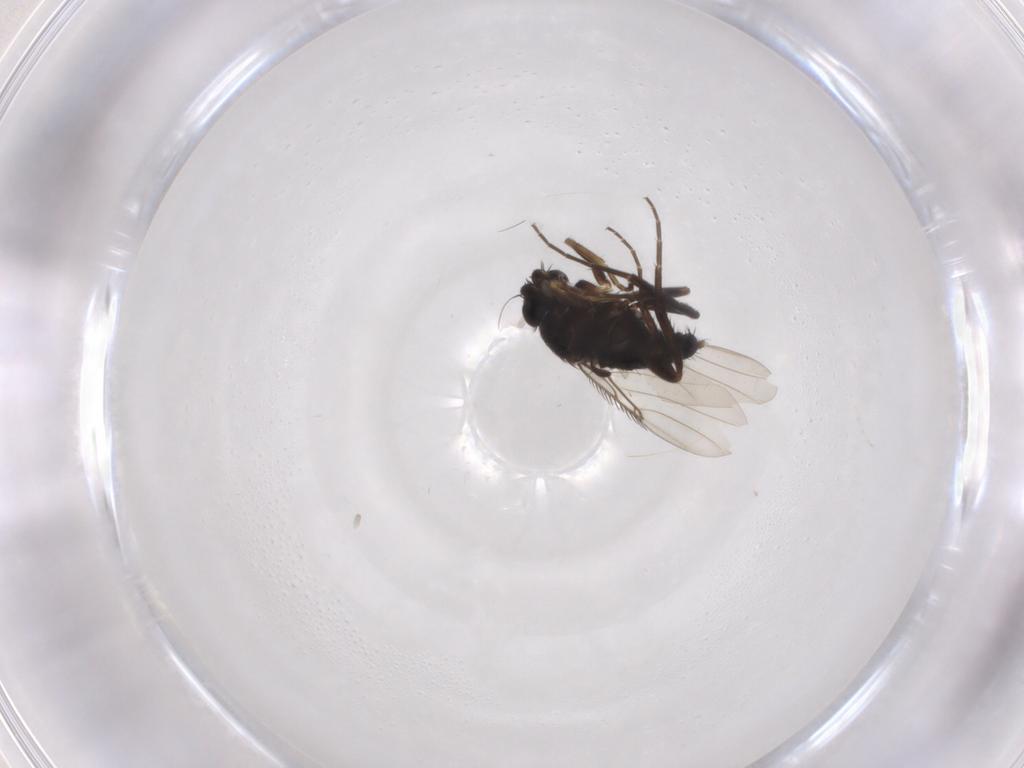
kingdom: Animalia
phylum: Arthropoda
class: Insecta
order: Diptera
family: Phoridae
